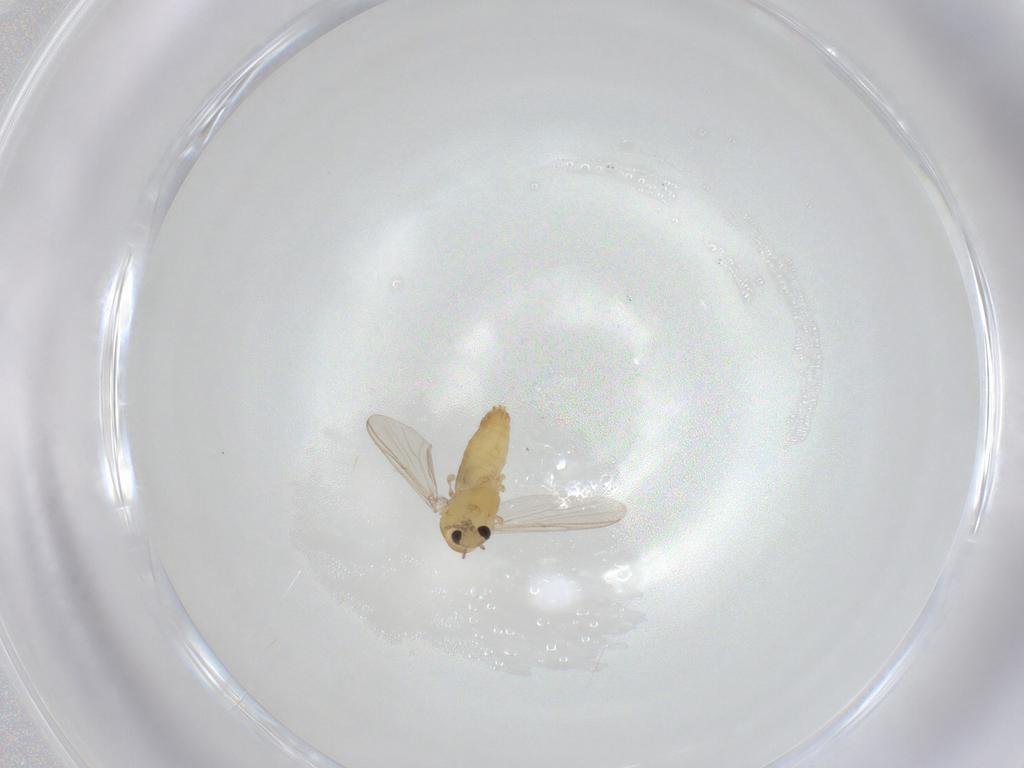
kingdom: Animalia
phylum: Arthropoda
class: Insecta
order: Diptera
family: Chironomidae
